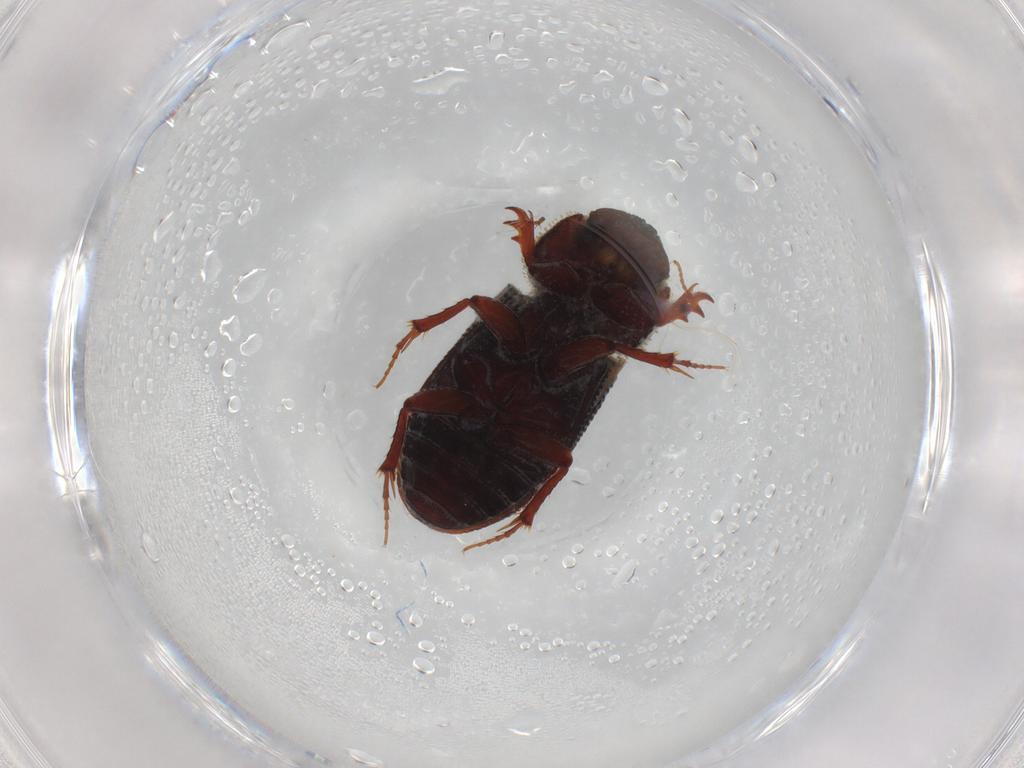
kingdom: Animalia
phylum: Arthropoda
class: Insecta
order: Coleoptera
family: Scarabaeidae
